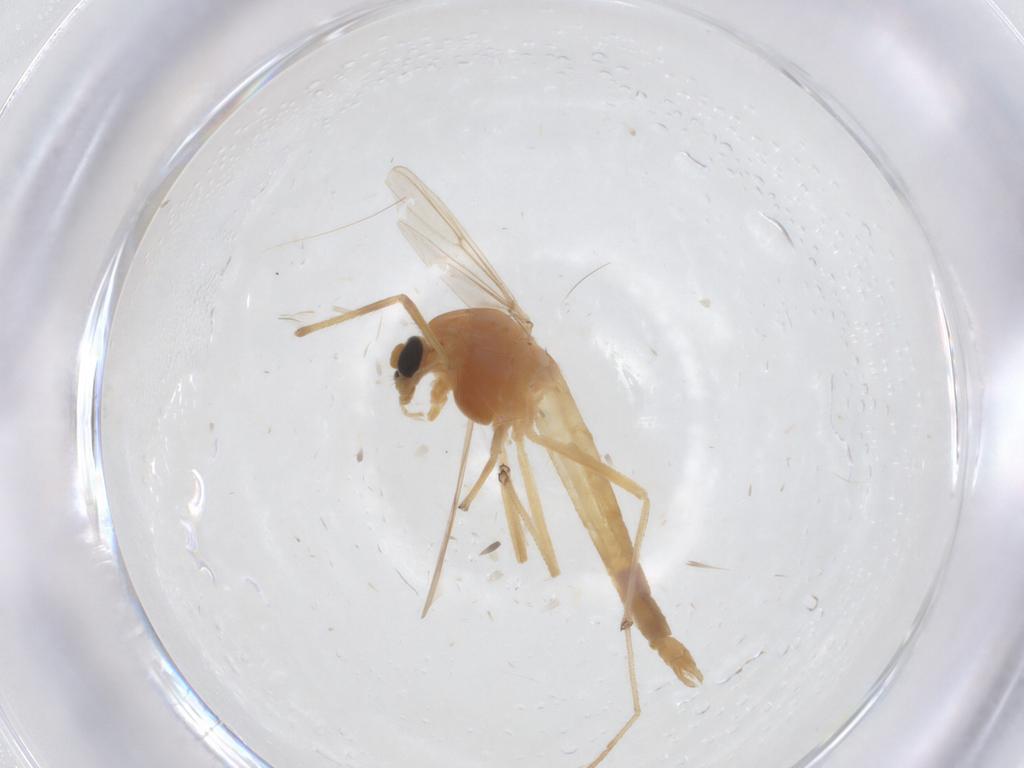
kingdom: Animalia
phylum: Arthropoda
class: Insecta
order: Diptera
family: Chironomidae
